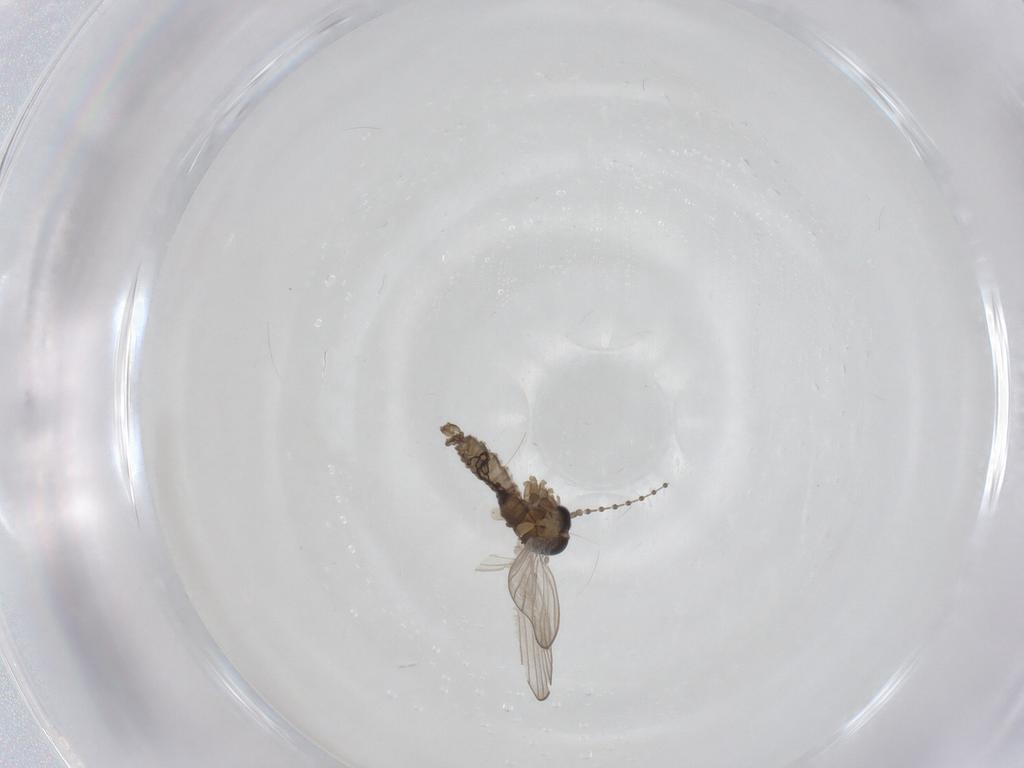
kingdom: Animalia
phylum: Arthropoda
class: Insecta
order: Diptera
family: Psychodidae
